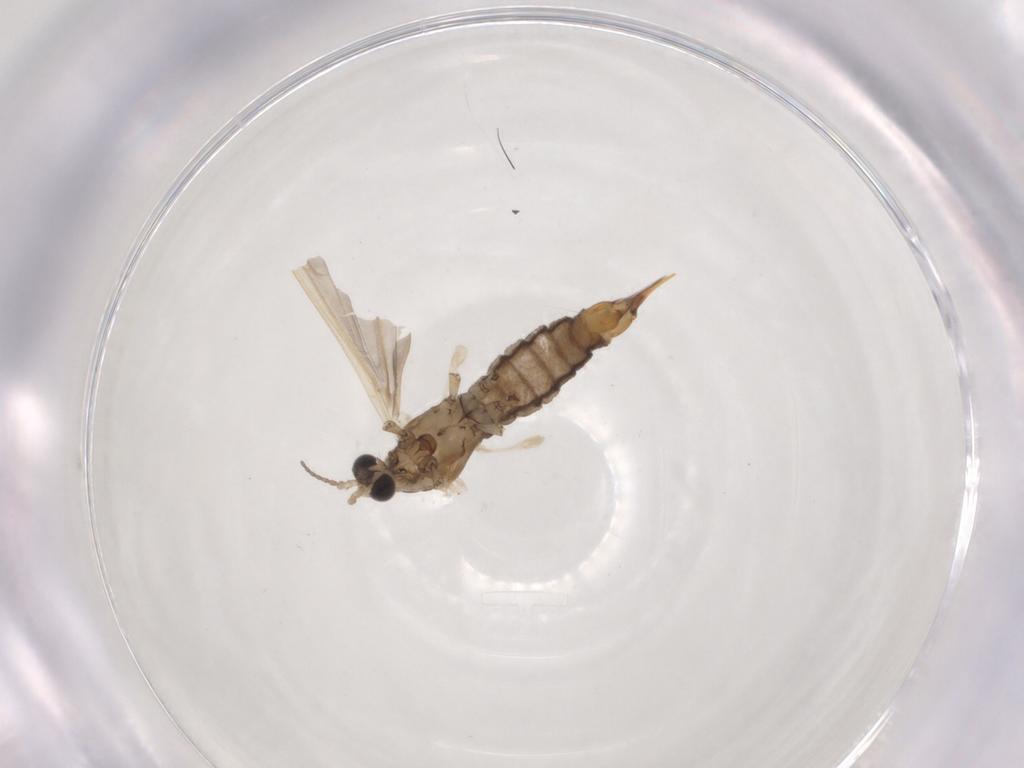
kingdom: Animalia
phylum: Arthropoda
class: Insecta
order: Diptera
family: Limoniidae
